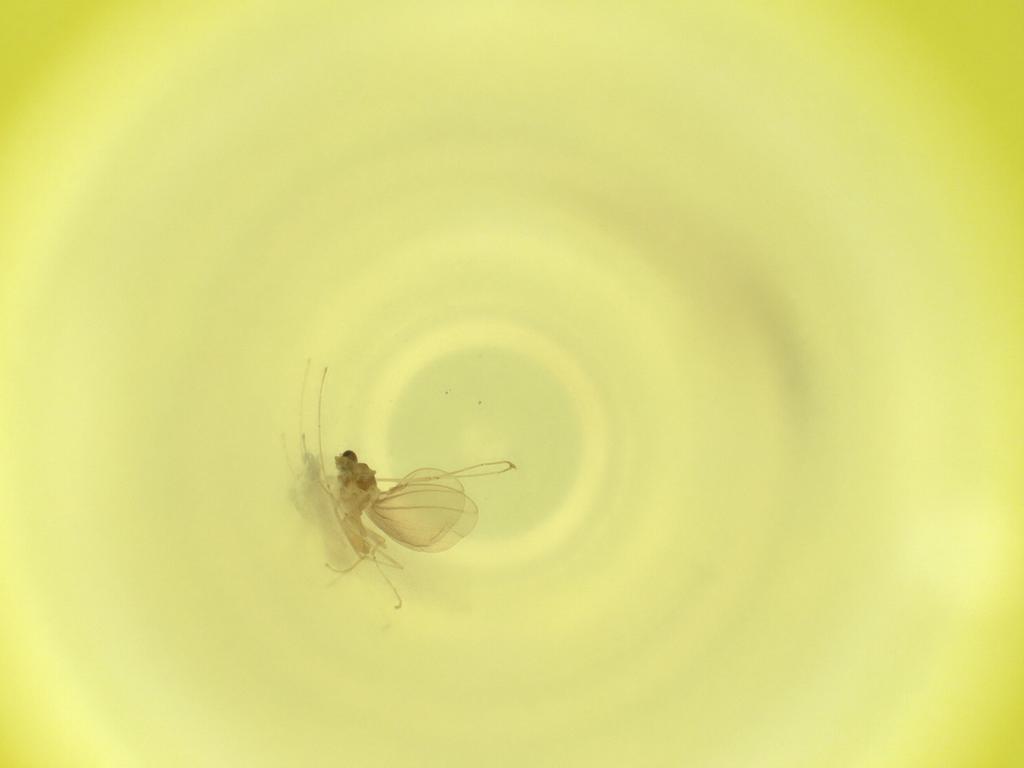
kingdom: Animalia
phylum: Arthropoda
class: Insecta
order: Diptera
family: Cecidomyiidae
